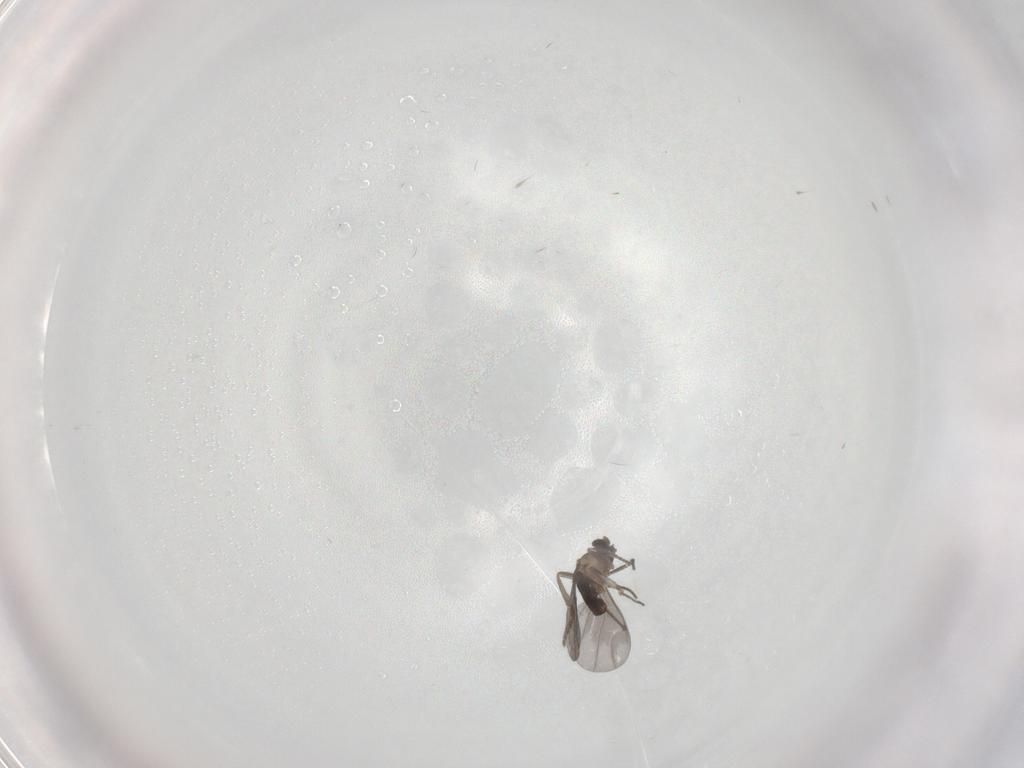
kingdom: Animalia
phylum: Arthropoda
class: Insecta
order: Diptera
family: Phoridae
